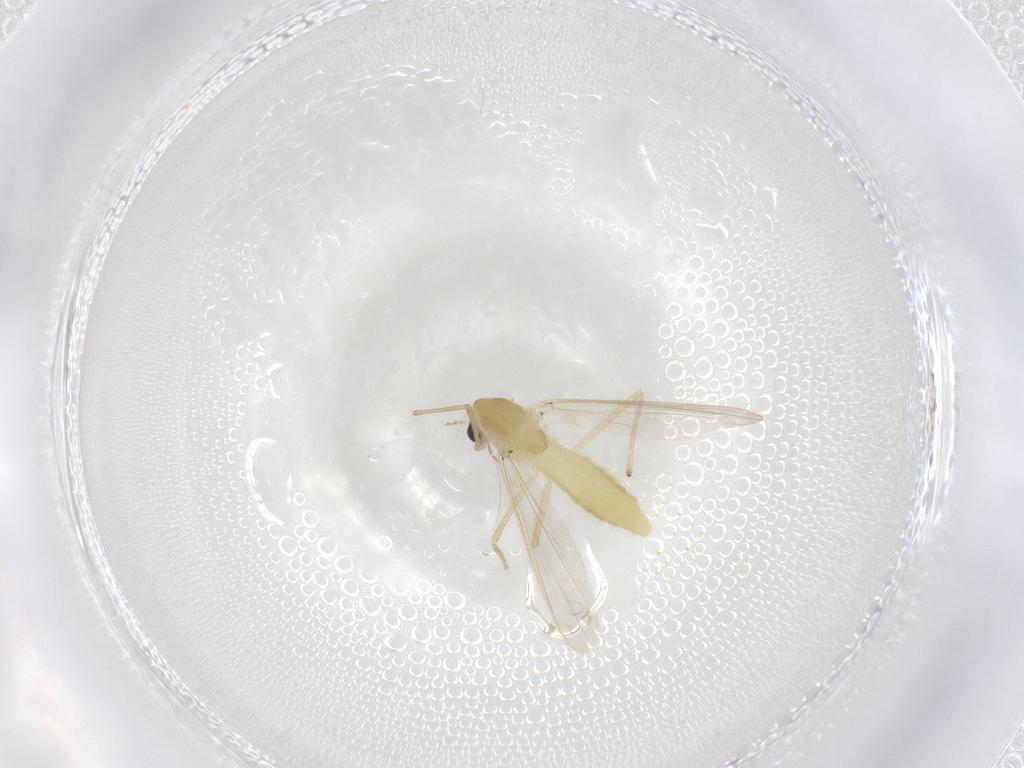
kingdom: Animalia
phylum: Arthropoda
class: Insecta
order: Diptera
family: Chironomidae
